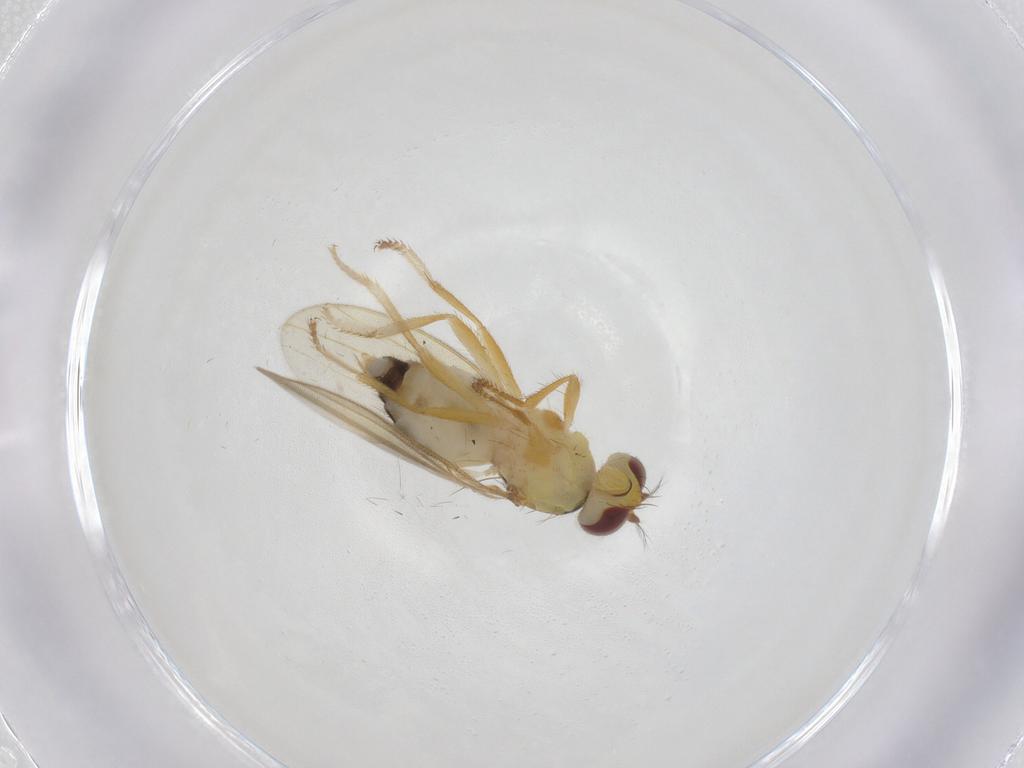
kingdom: Animalia
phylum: Arthropoda
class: Insecta
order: Diptera
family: Periscelididae
